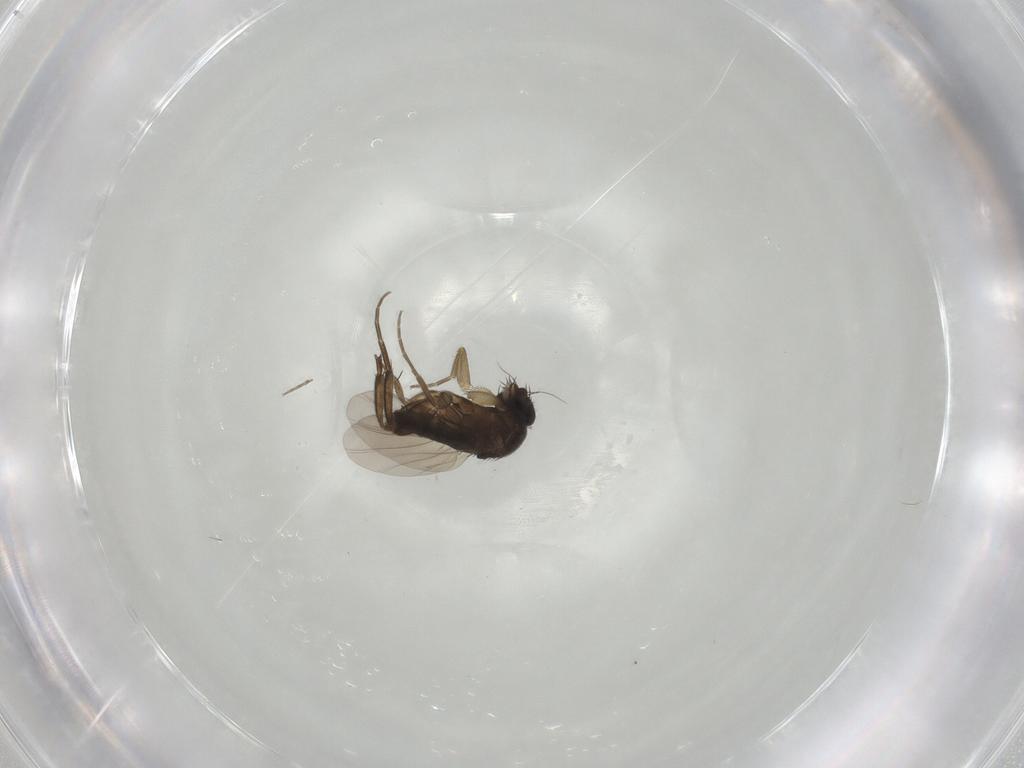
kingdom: Animalia
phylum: Arthropoda
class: Insecta
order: Diptera
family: Phoridae
